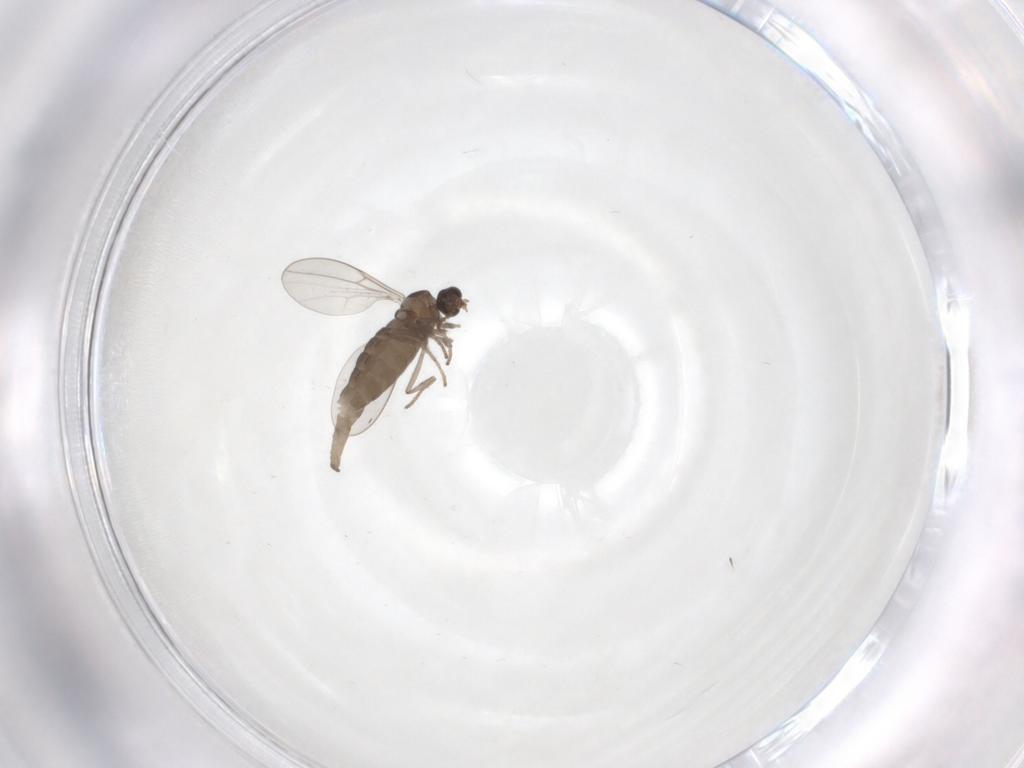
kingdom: Animalia
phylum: Arthropoda
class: Insecta
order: Diptera
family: Cecidomyiidae
